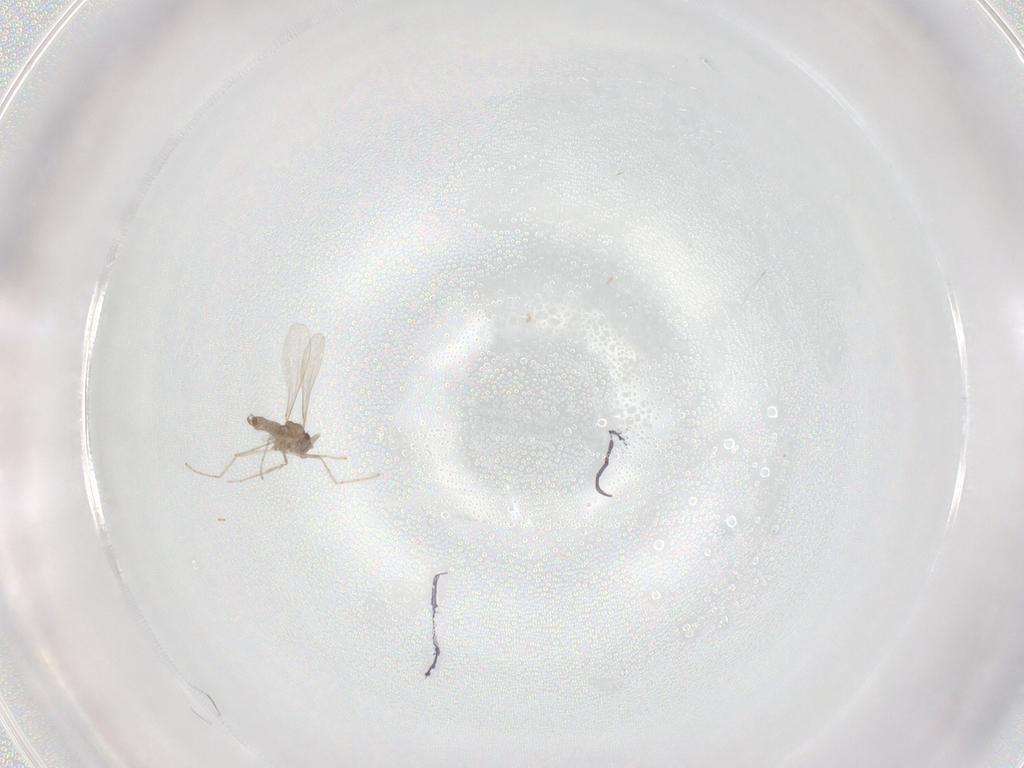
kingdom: Animalia
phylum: Arthropoda
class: Insecta
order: Diptera
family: Cecidomyiidae
